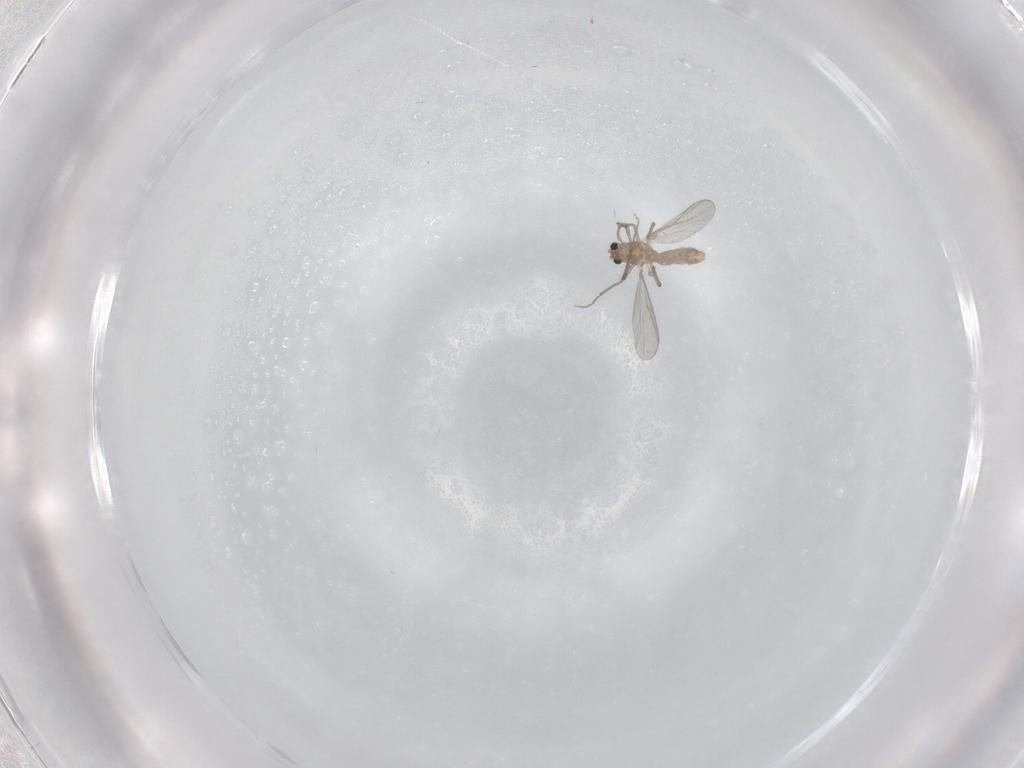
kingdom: Animalia
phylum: Arthropoda
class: Insecta
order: Diptera
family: Chironomidae
